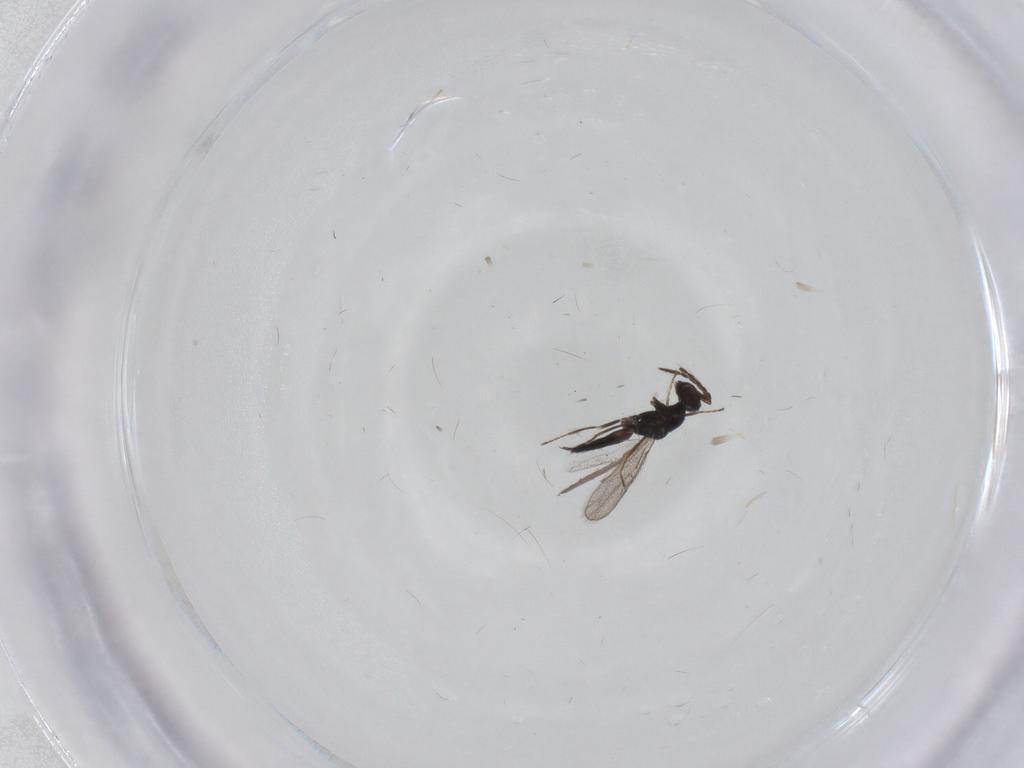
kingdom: Animalia
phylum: Arthropoda
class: Insecta
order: Hymenoptera
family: Eulophidae
